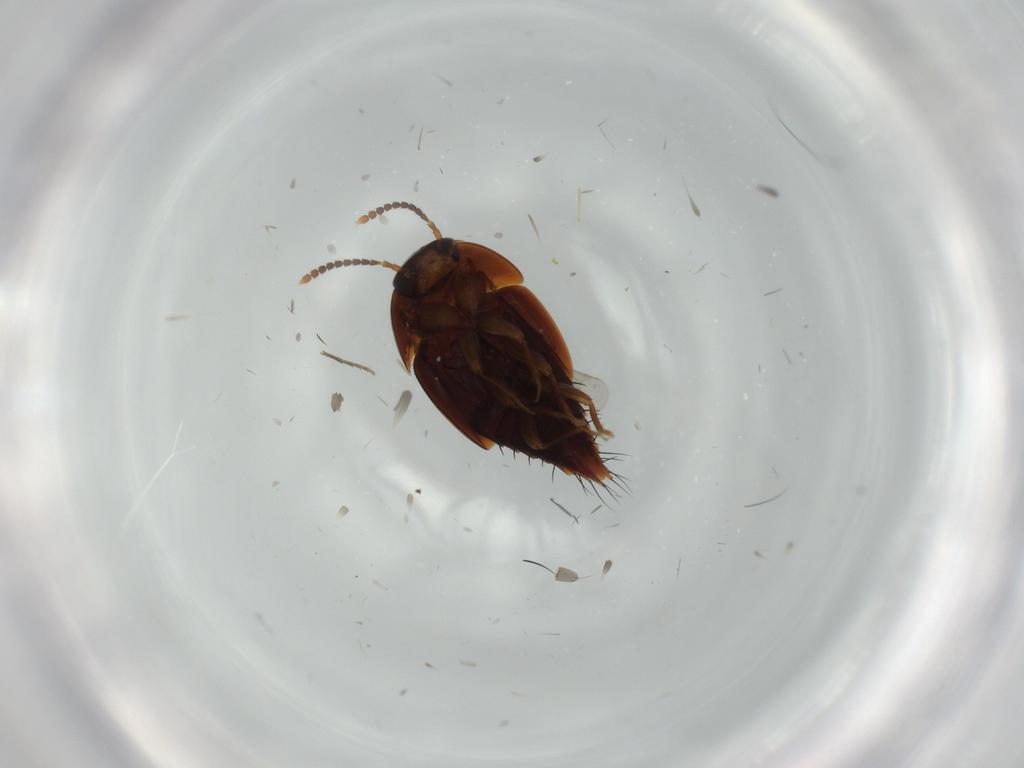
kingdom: Animalia
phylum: Arthropoda
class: Insecta
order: Coleoptera
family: Staphylinidae
